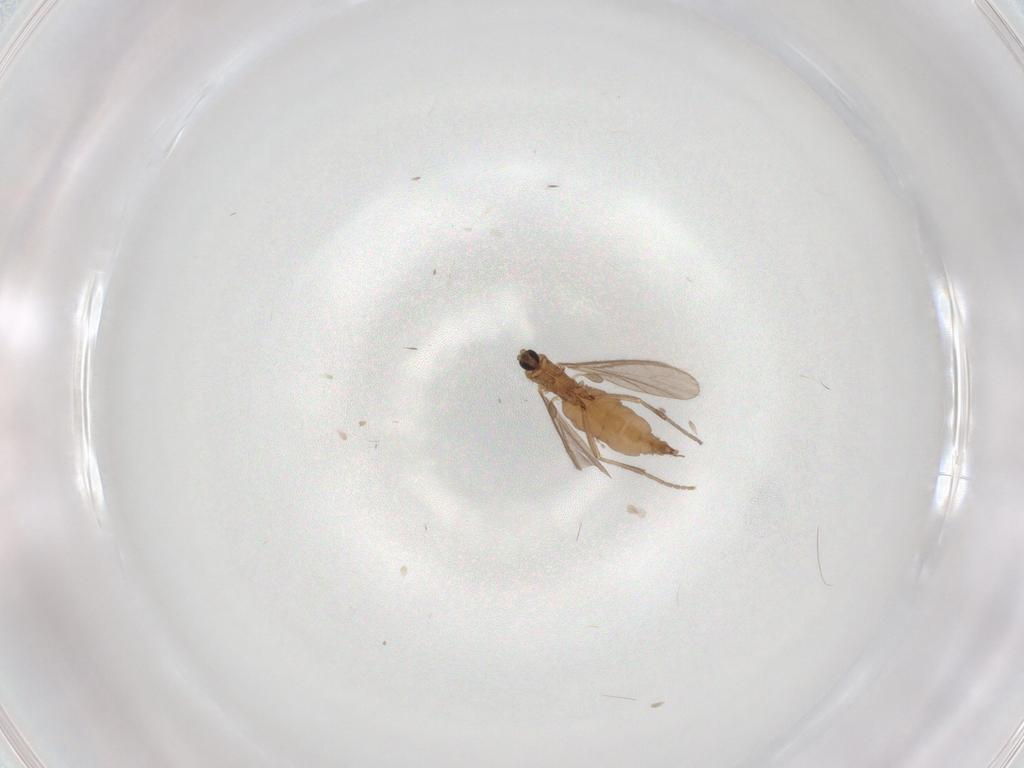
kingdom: Animalia
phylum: Arthropoda
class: Insecta
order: Diptera
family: Sciaridae
